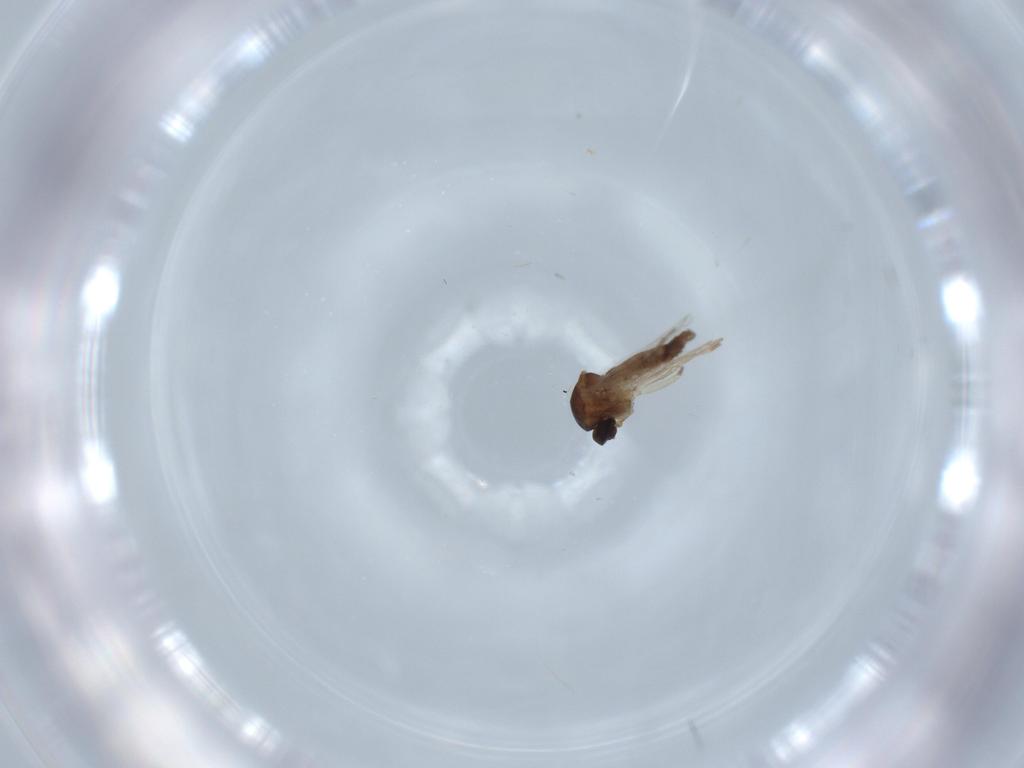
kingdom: Animalia
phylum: Arthropoda
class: Insecta
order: Diptera
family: Ceratopogonidae
